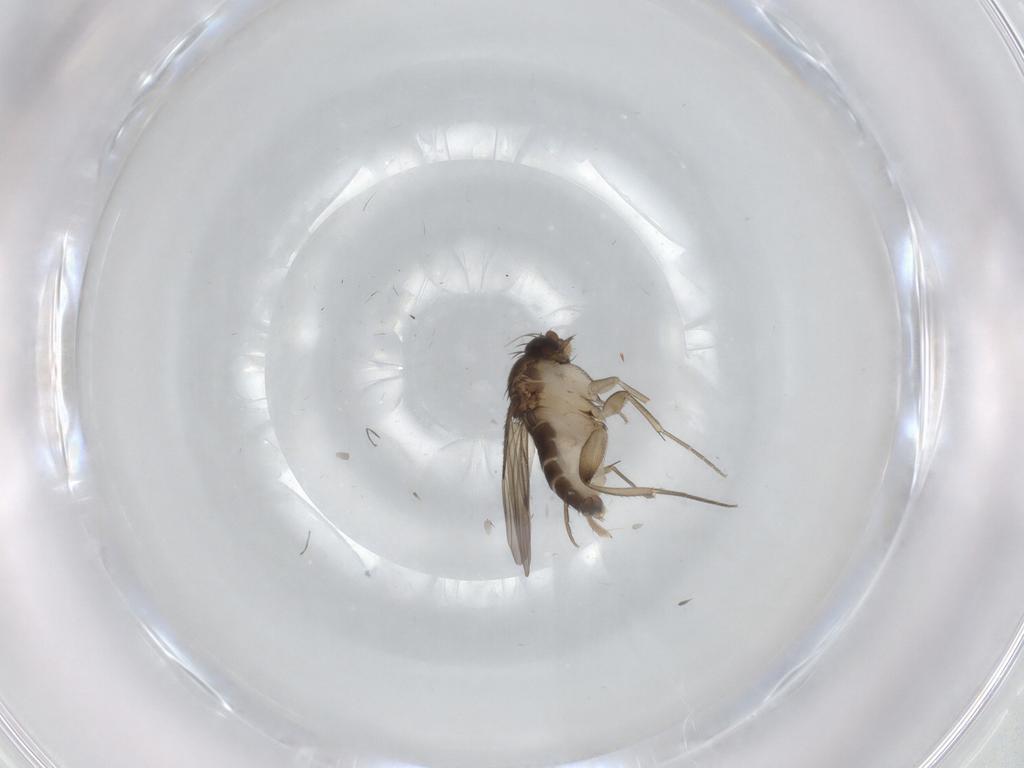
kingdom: Animalia
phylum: Arthropoda
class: Insecta
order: Diptera
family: Phoridae
